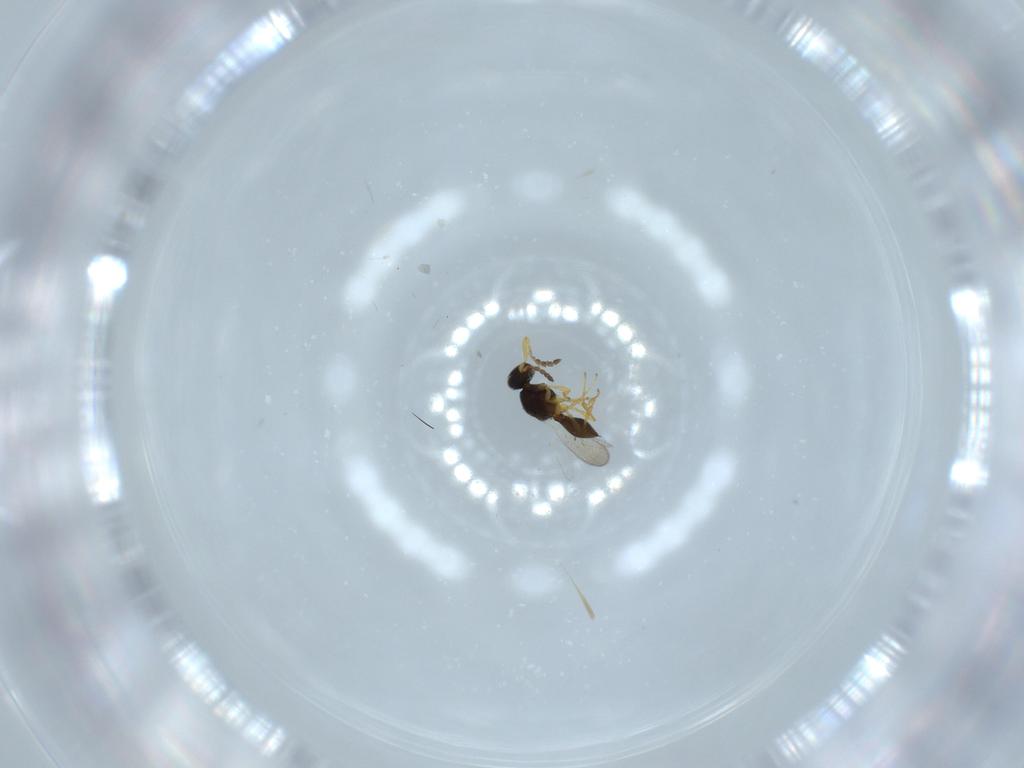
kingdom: Animalia
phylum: Arthropoda
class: Insecta
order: Hymenoptera
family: Platygastridae
